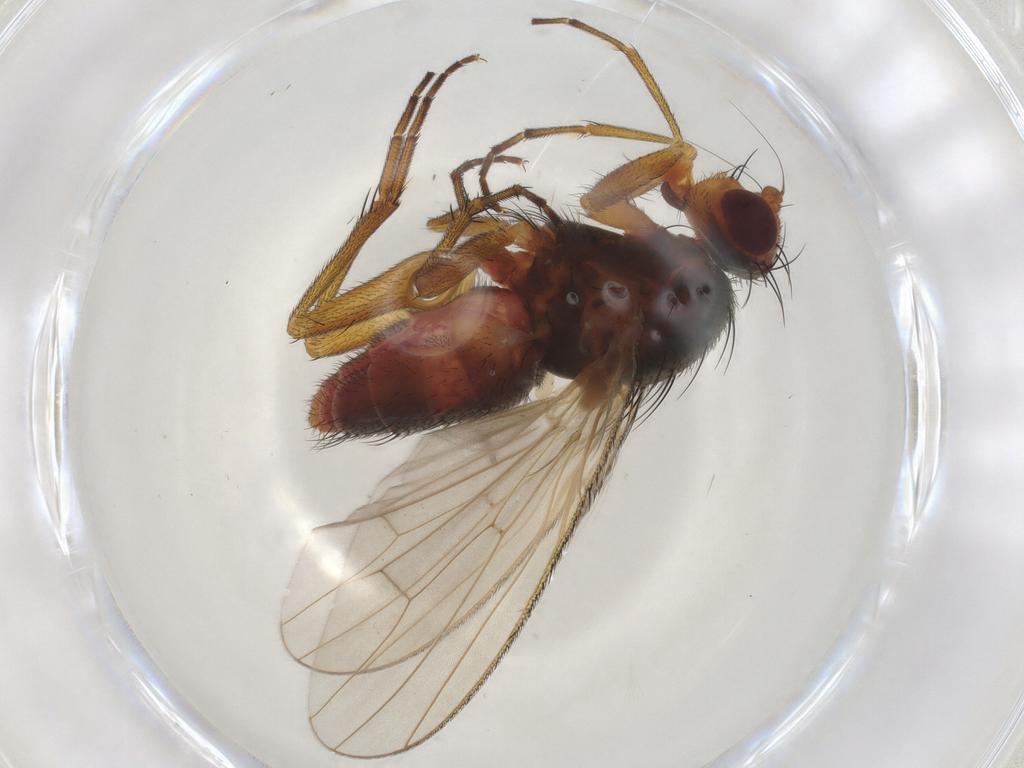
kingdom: Animalia
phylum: Arthropoda
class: Insecta
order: Diptera
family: Heleomyzidae
